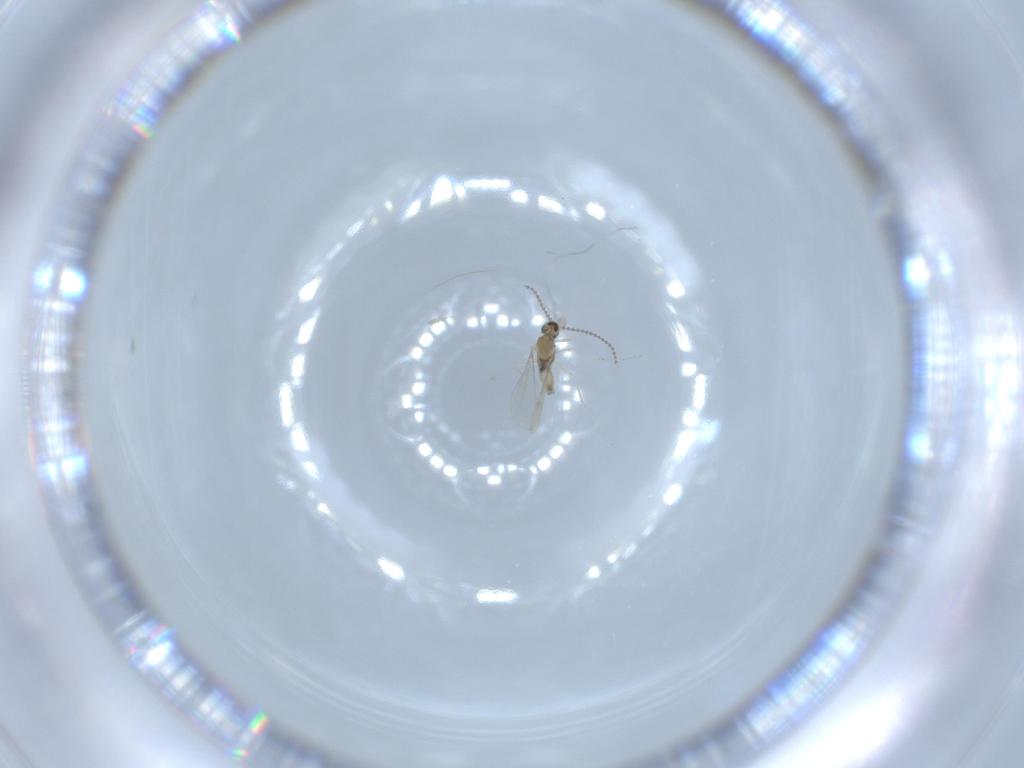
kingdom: Animalia
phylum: Arthropoda
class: Insecta
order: Diptera
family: Cecidomyiidae
